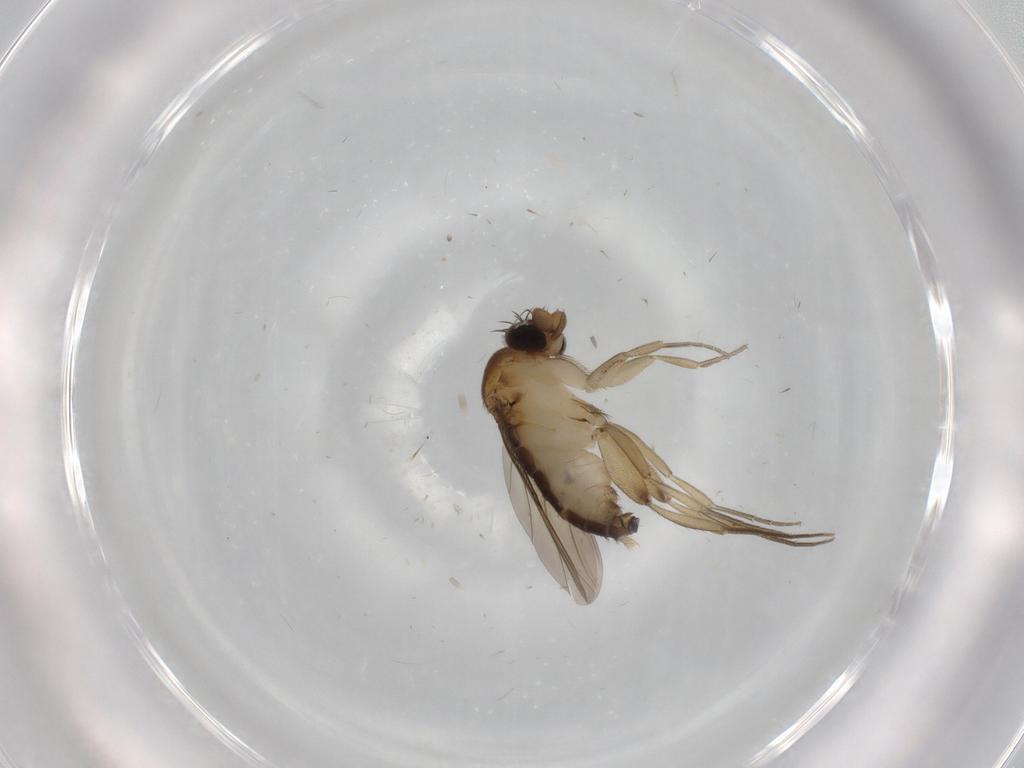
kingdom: Animalia
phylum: Arthropoda
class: Insecta
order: Diptera
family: Phoridae
